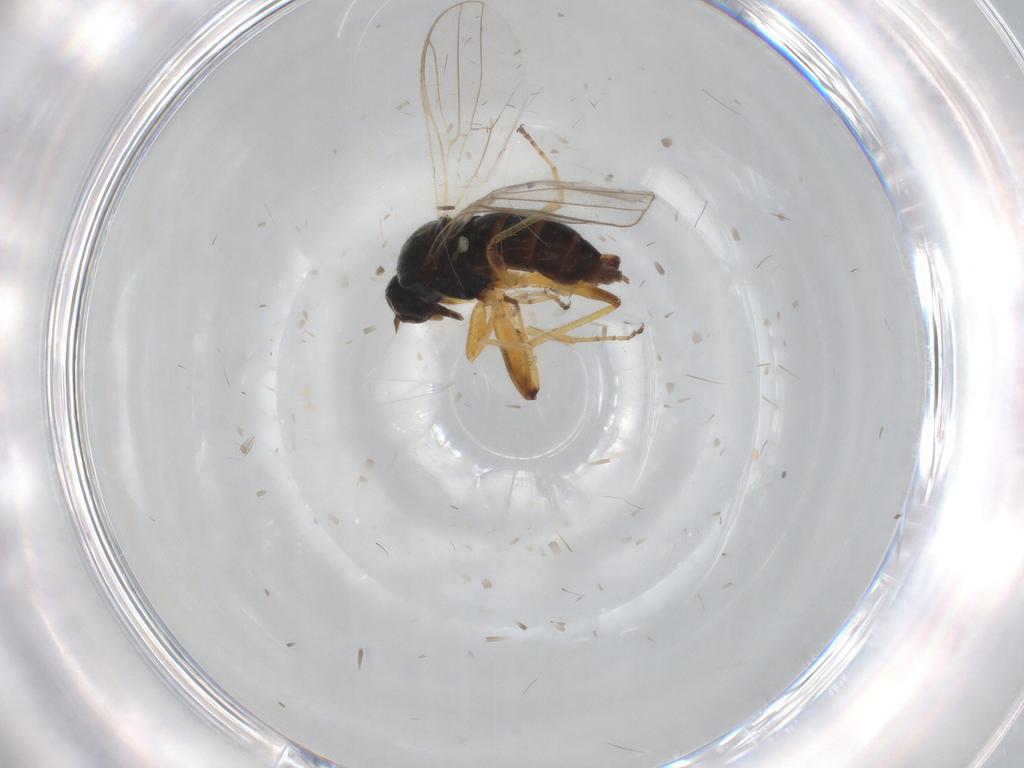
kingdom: Animalia
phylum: Arthropoda
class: Insecta
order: Diptera
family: Hybotidae
